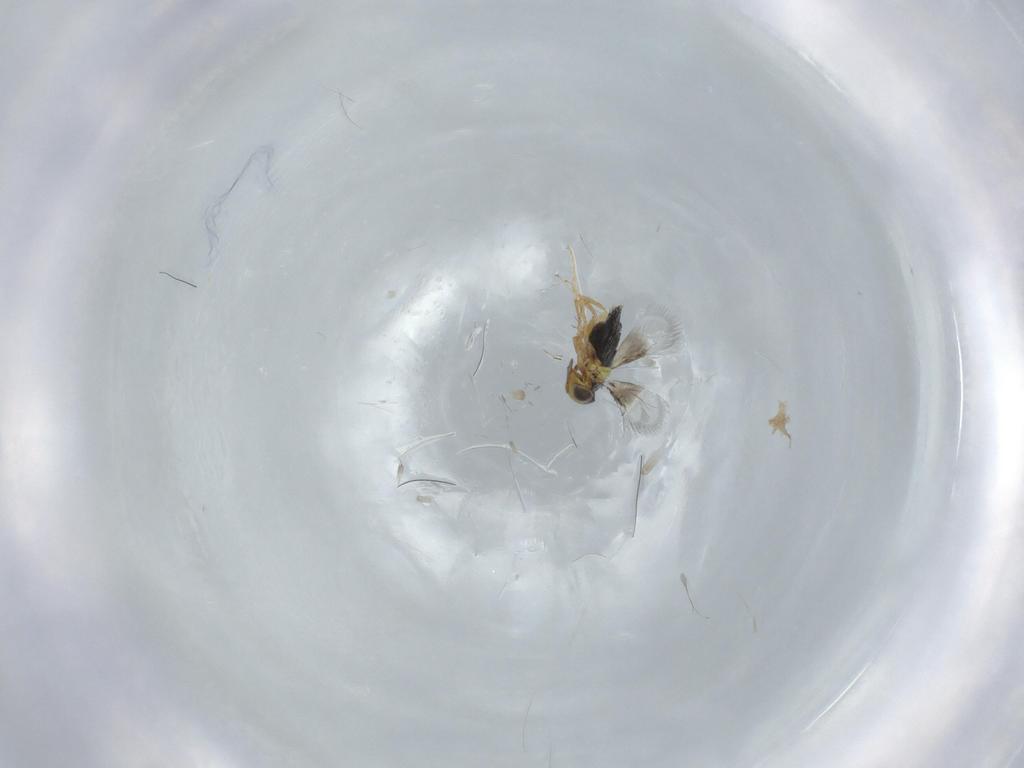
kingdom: Animalia
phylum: Arthropoda
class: Insecta
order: Hymenoptera
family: Signiphoridae
